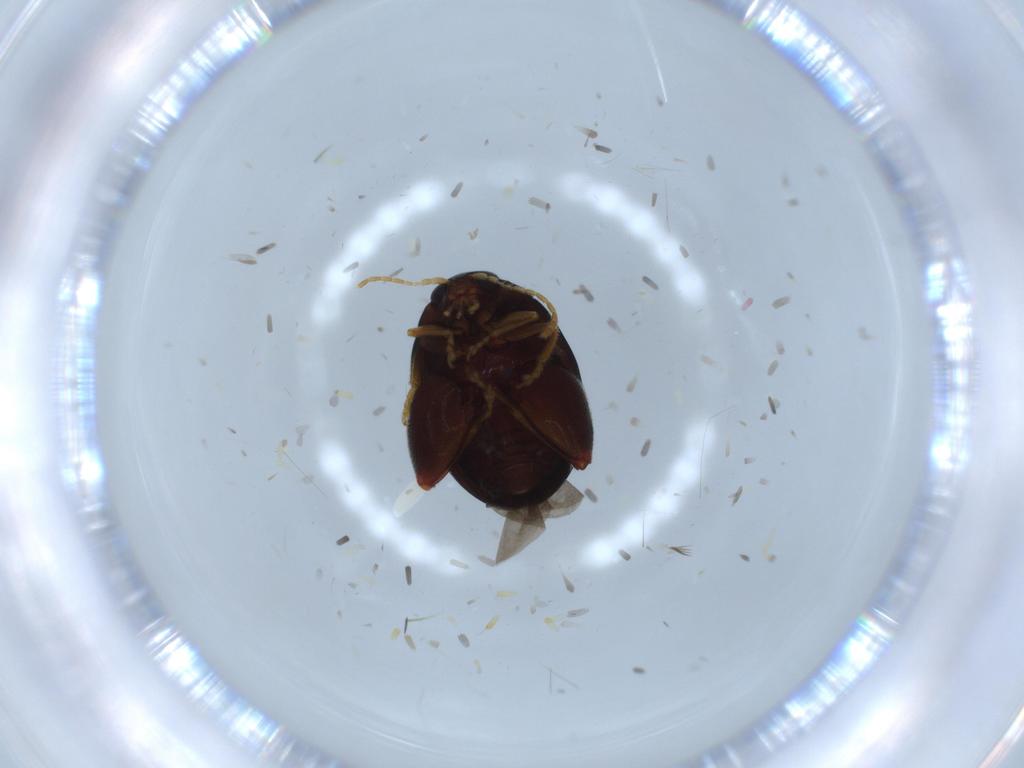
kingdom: Animalia
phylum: Arthropoda
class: Insecta
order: Coleoptera
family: Chrysomelidae
